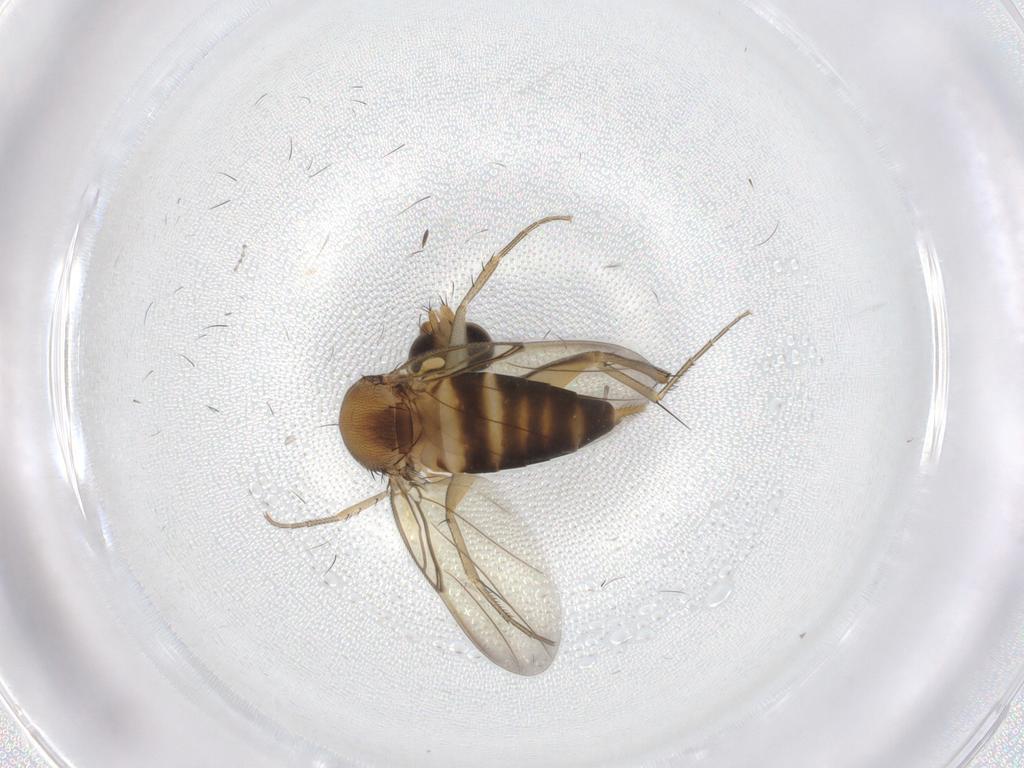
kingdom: Animalia
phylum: Arthropoda
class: Insecta
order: Diptera
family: Phoridae
